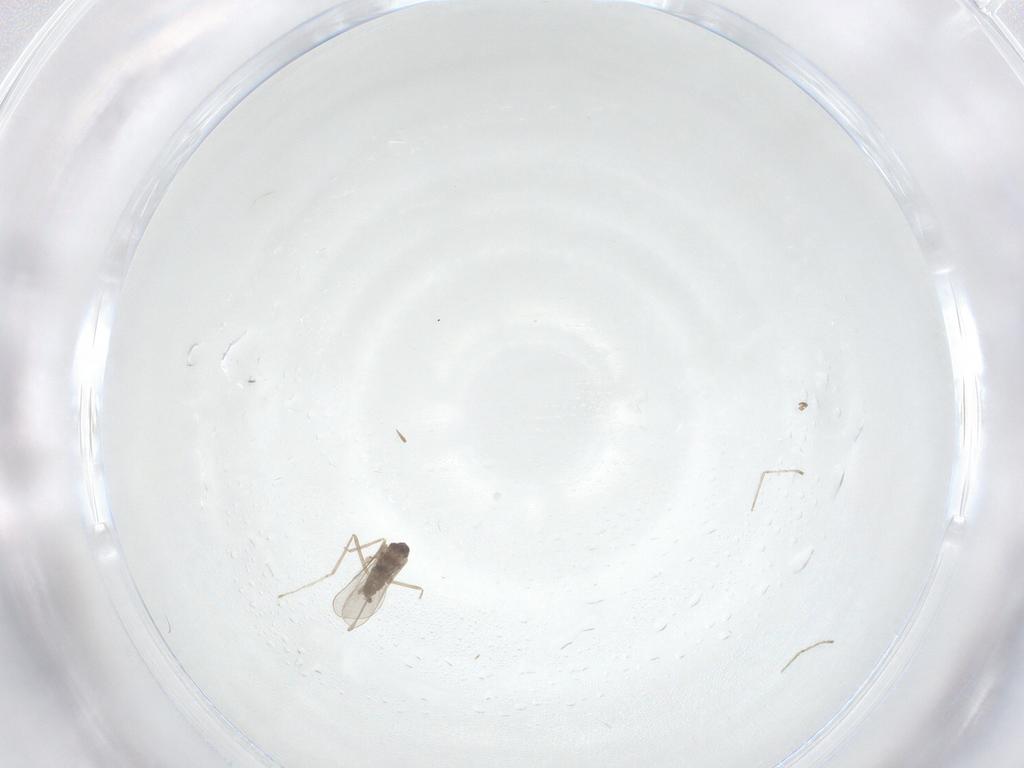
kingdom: Animalia
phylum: Arthropoda
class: Insecta
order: Diptera
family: Cecidomyiidae
